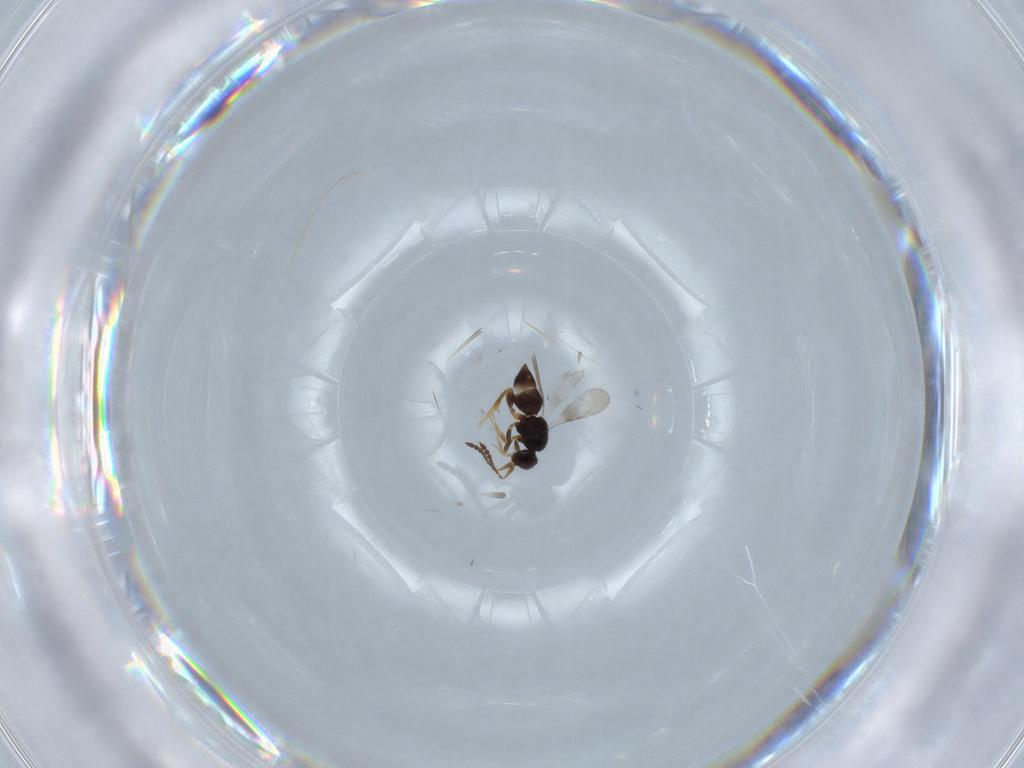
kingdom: Animalia
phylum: Arthropoda
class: Insecta
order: Hymenoptera
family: Ceraphronidae
